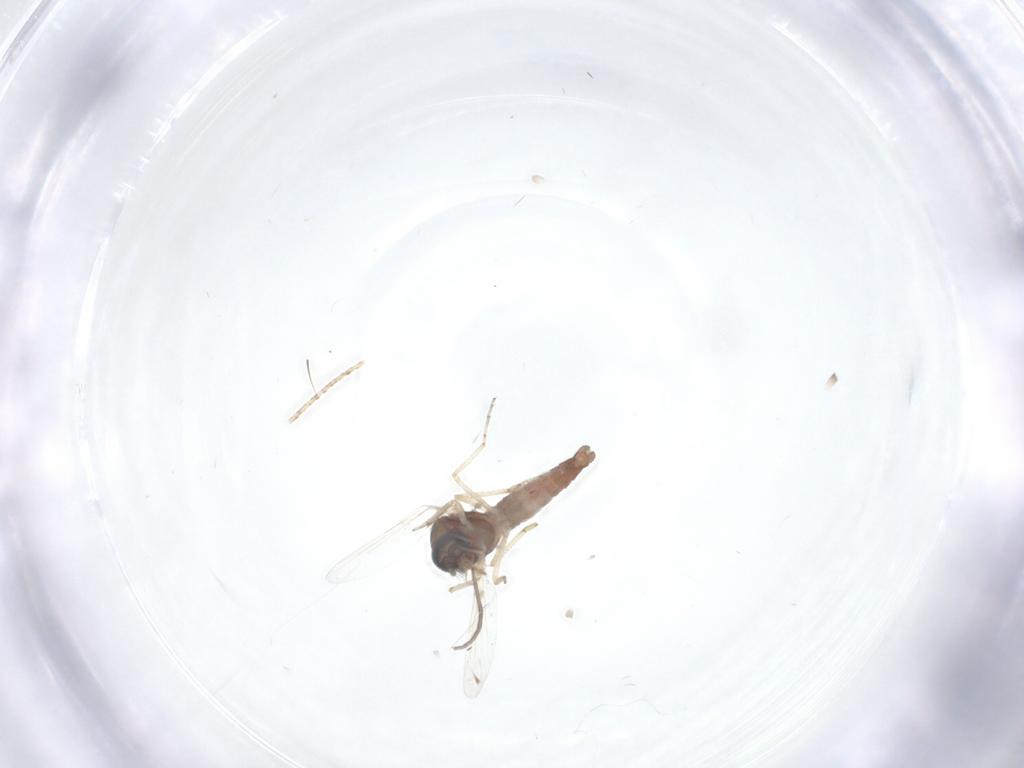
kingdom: Animalia
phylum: Arthropoda
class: Insecta
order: Diptera
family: Ceratopogonidae
